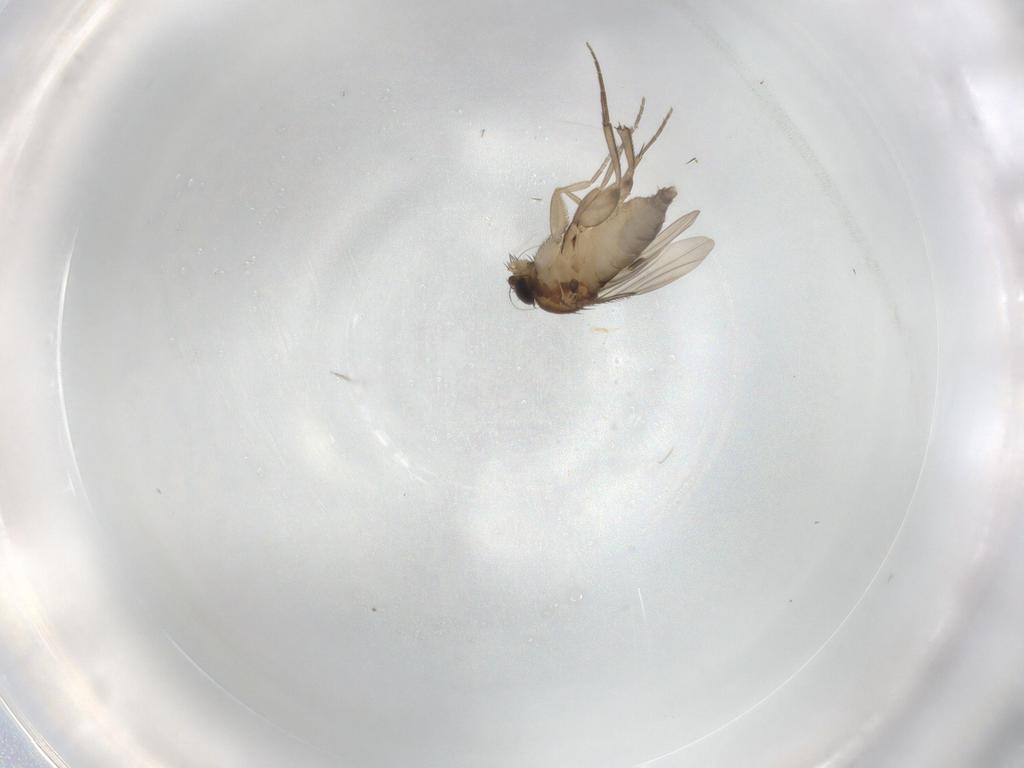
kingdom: Animalia
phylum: Arthropoda
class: Insecta
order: Diptera
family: Phoridae
